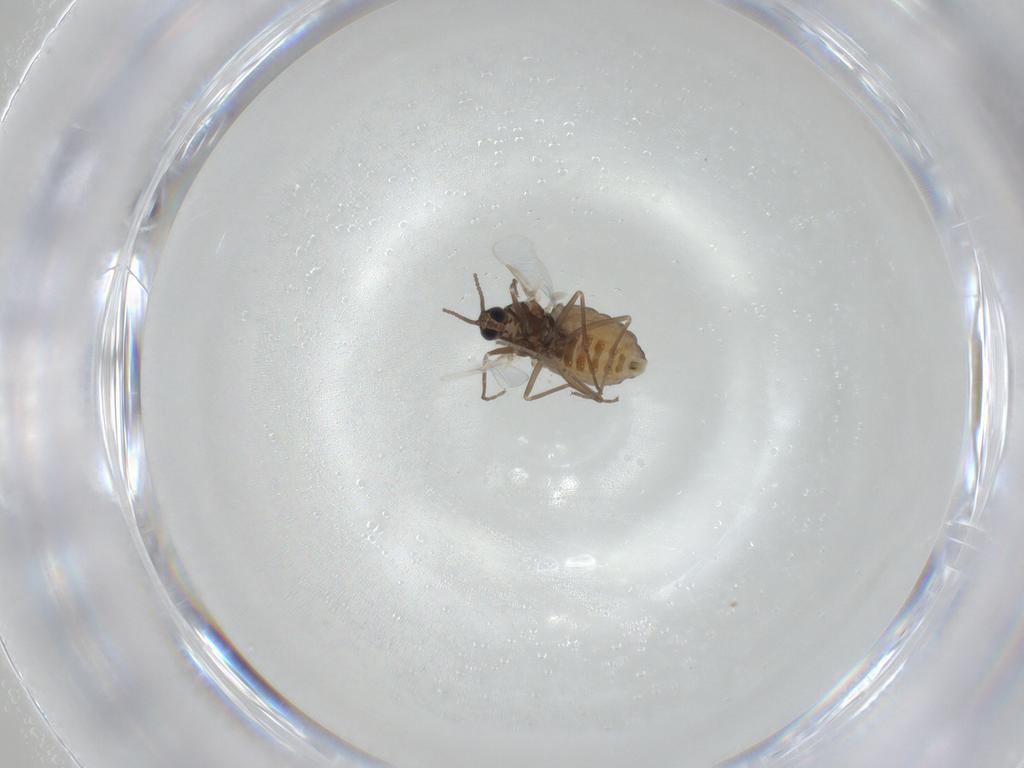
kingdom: Animalia
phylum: Arthropoda
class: Insecta
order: Diptera
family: Cecidomyiidae
